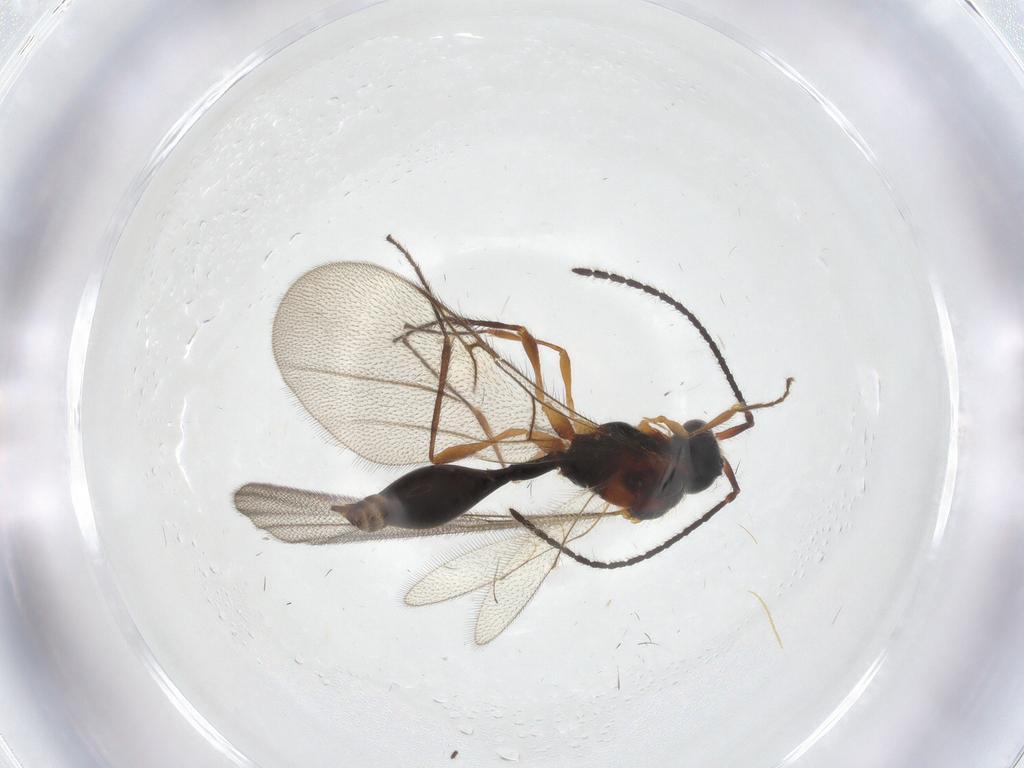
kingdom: Animalia
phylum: Arthropoda
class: Insecta
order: Hymenoptera
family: Diapriidae
